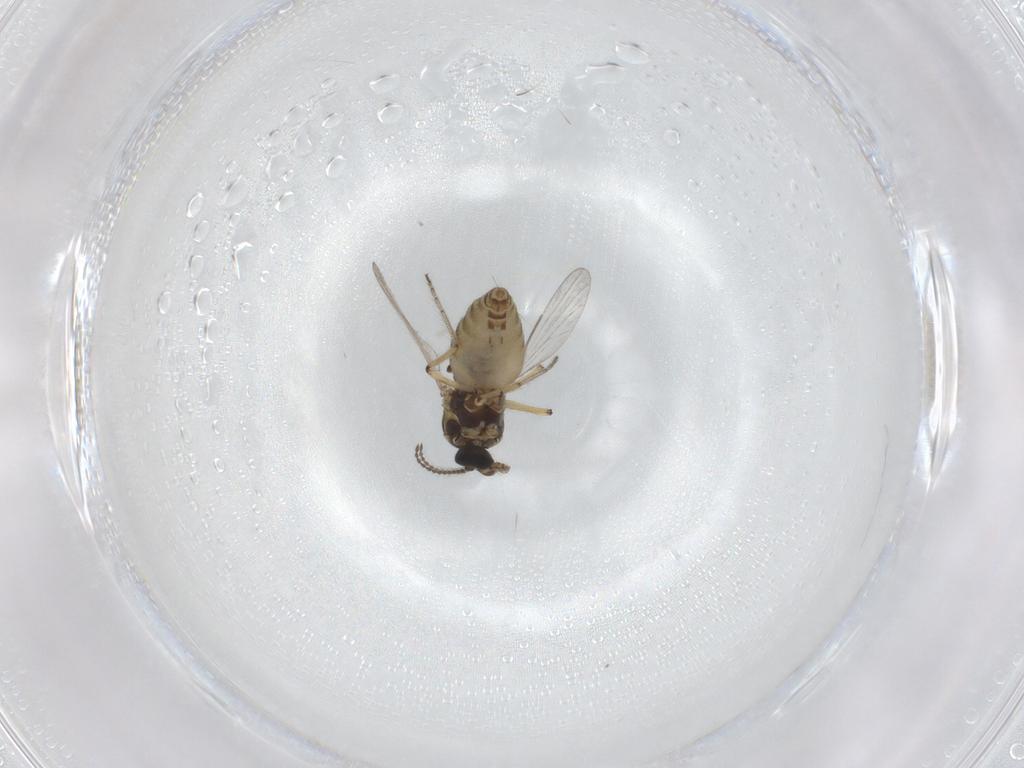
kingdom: Animalia
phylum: Arthropoda
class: Insecta
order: Diptera
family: Ceratopogonidae
